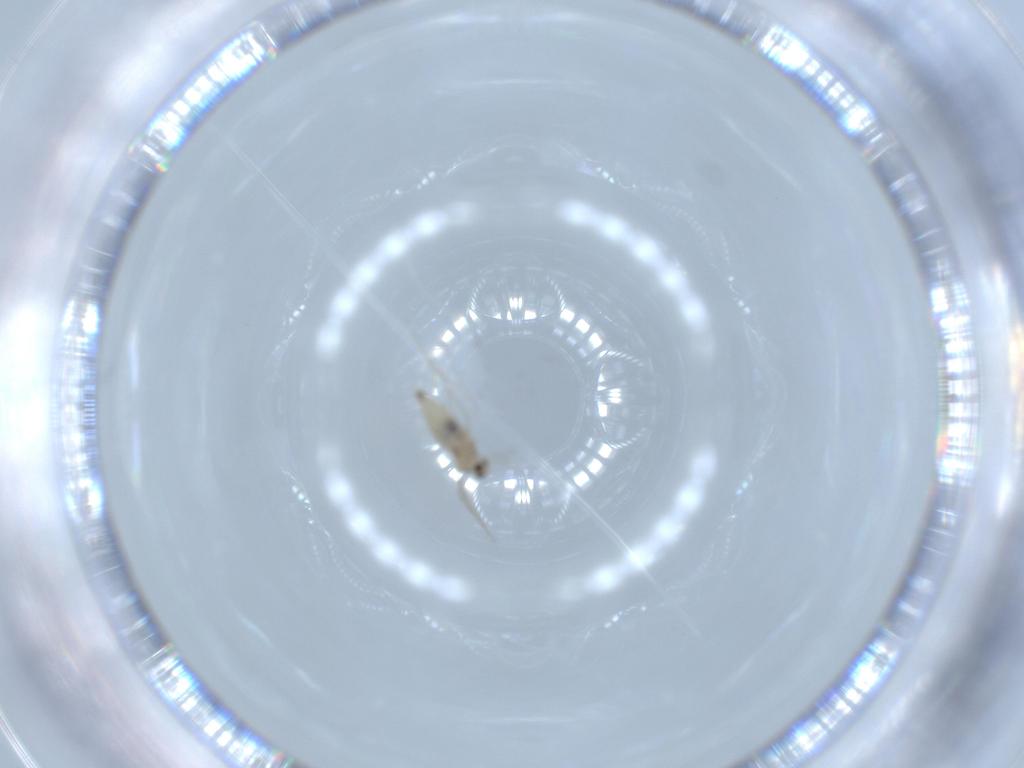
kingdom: Animalia
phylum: Arthropoda
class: Insecta
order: Diptera
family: Cecidomyiidae
